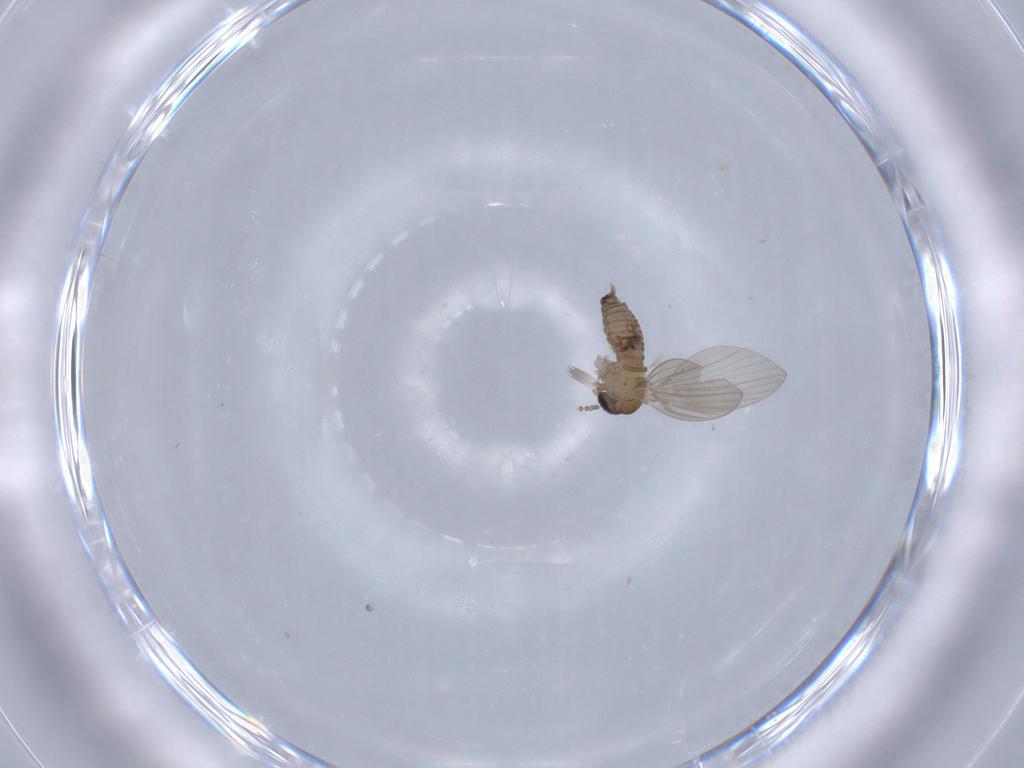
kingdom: Animalia
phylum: Arthropoda
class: Insecta
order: Diptera
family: Psychodidae
